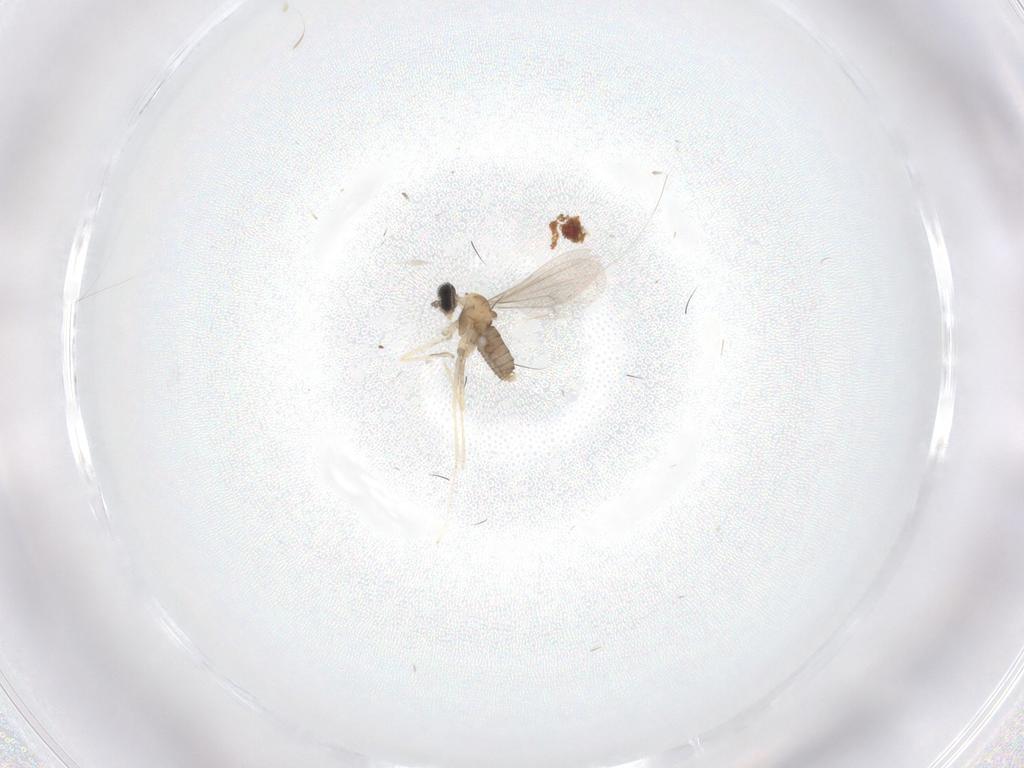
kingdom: Animalia
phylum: Arthropoda
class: Insecta
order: Diptera
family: Cecidomyiidae
